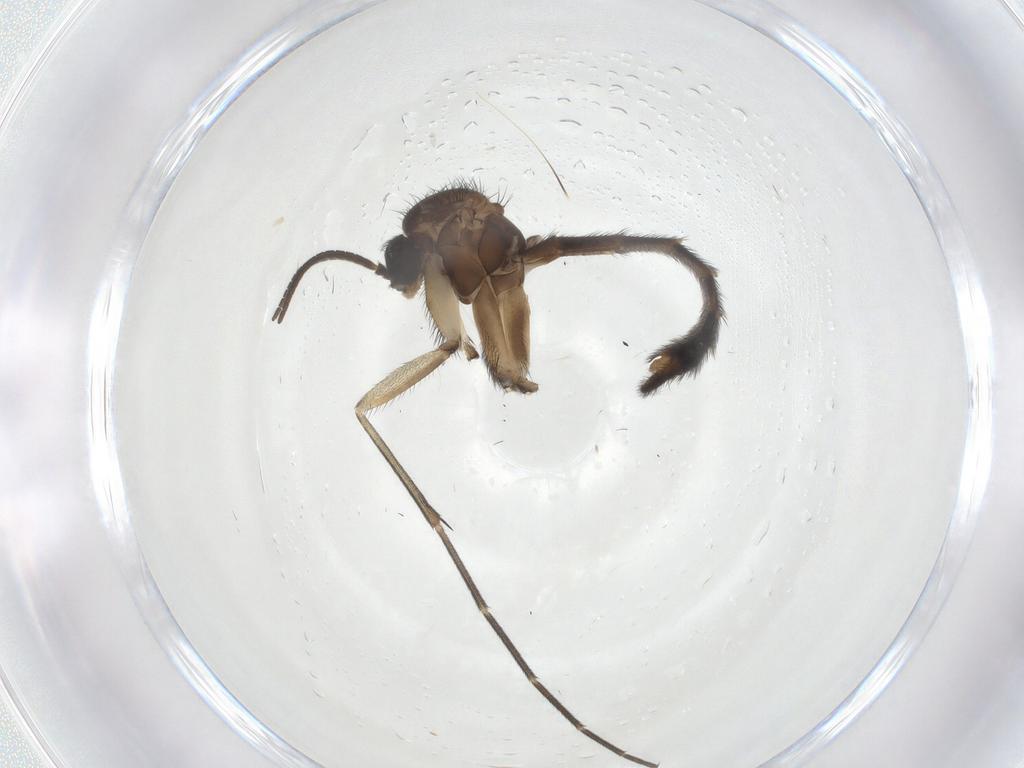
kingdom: Animalia
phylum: Arthropoda
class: Insecta
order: Diptera
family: Keroplatidae
